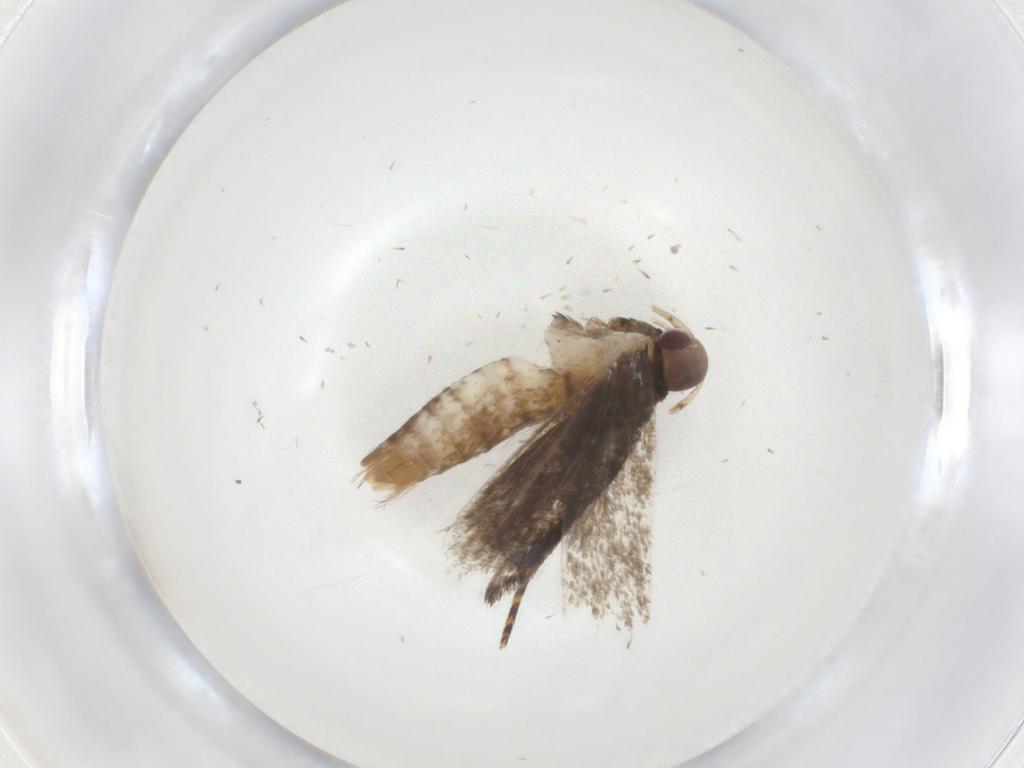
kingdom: Animalia
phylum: Arthropoda
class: Insecta
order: Lepidoptera
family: Gelechiidae
